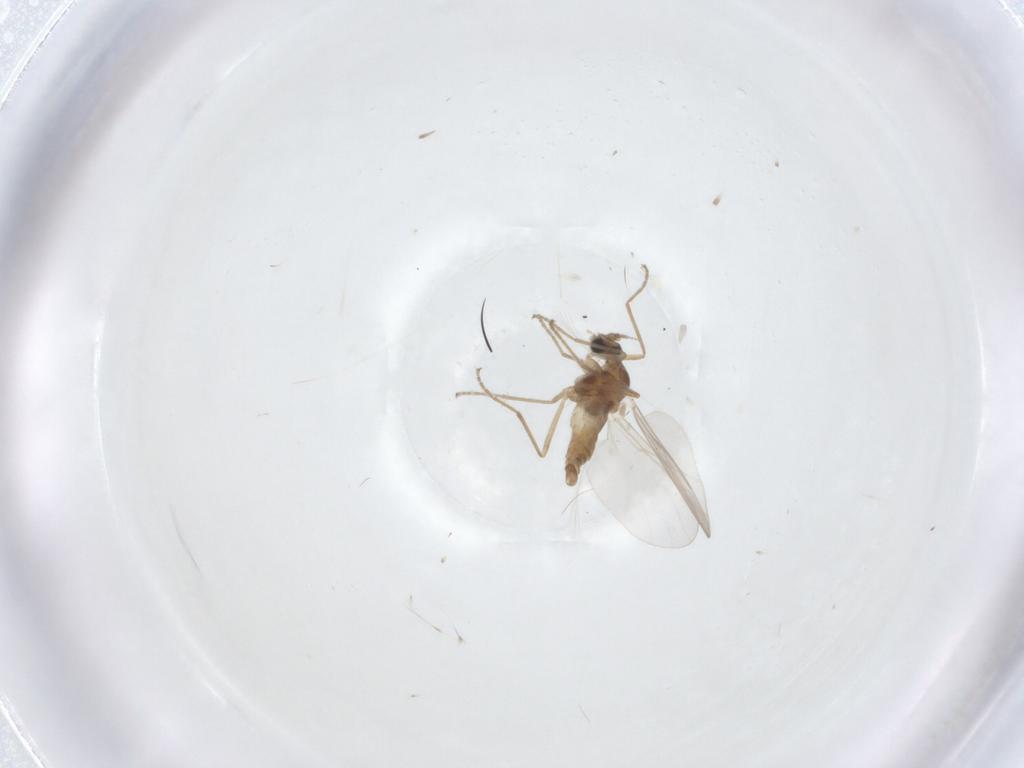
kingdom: Animalia
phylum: Arthropoda
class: Insecta
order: Diptera
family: Cecidomyiidae
